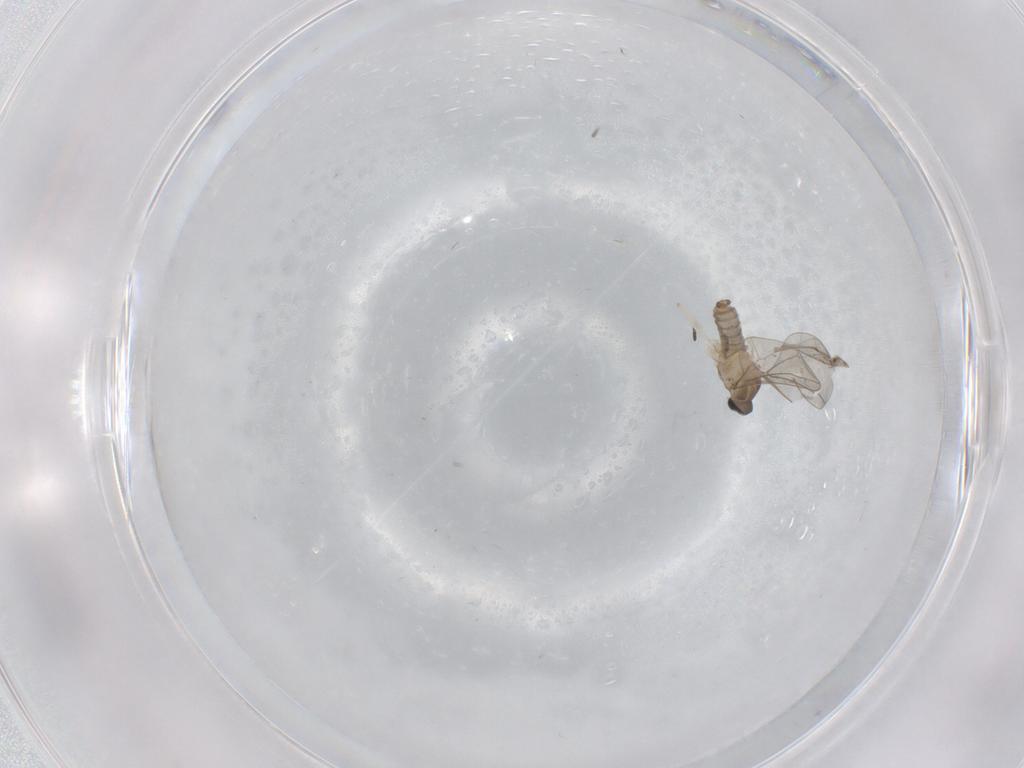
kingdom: Animalia
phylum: Arthropoda
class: Insecta
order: Diptera
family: Cecidomyiidae
